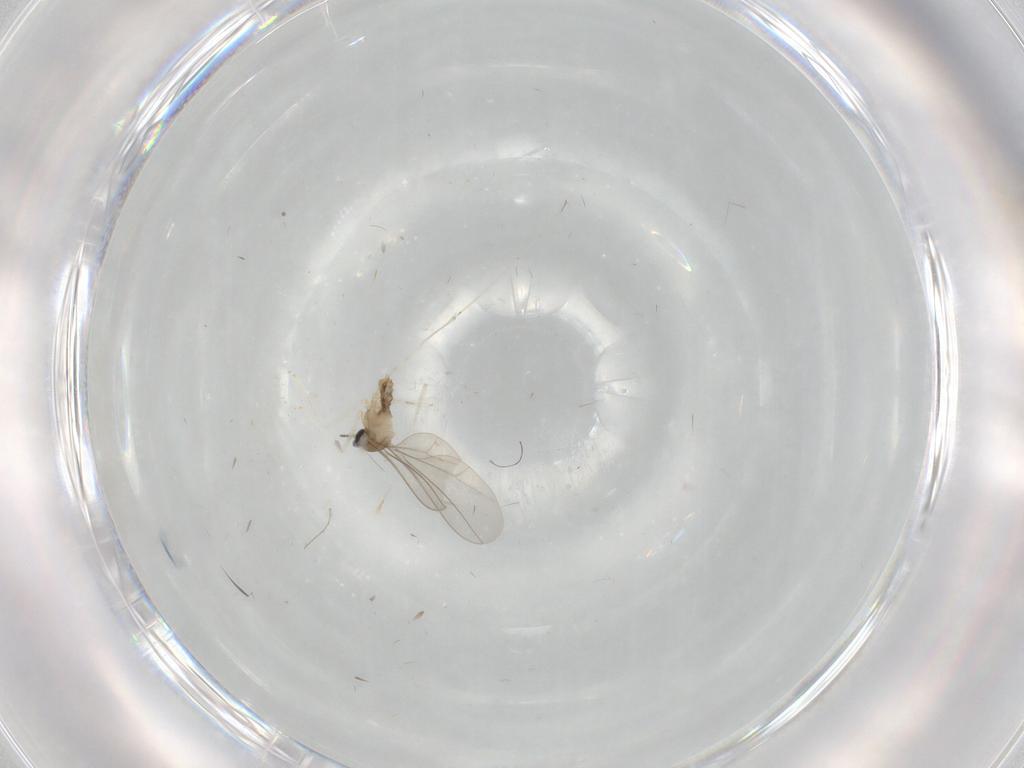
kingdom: Animalia
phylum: Arthropoda
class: Insecta
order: Diptera
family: Cecidomyiidae
